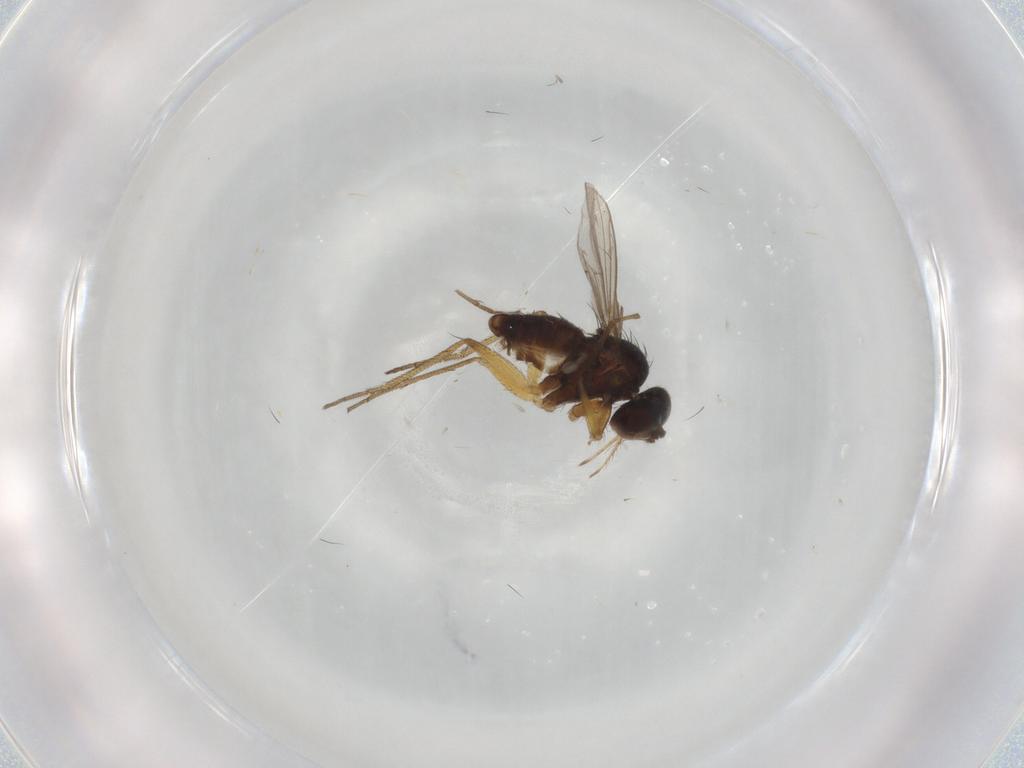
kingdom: Animalia
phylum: Arthropoda
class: Insecta
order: Diptera
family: Dolichopodidae
